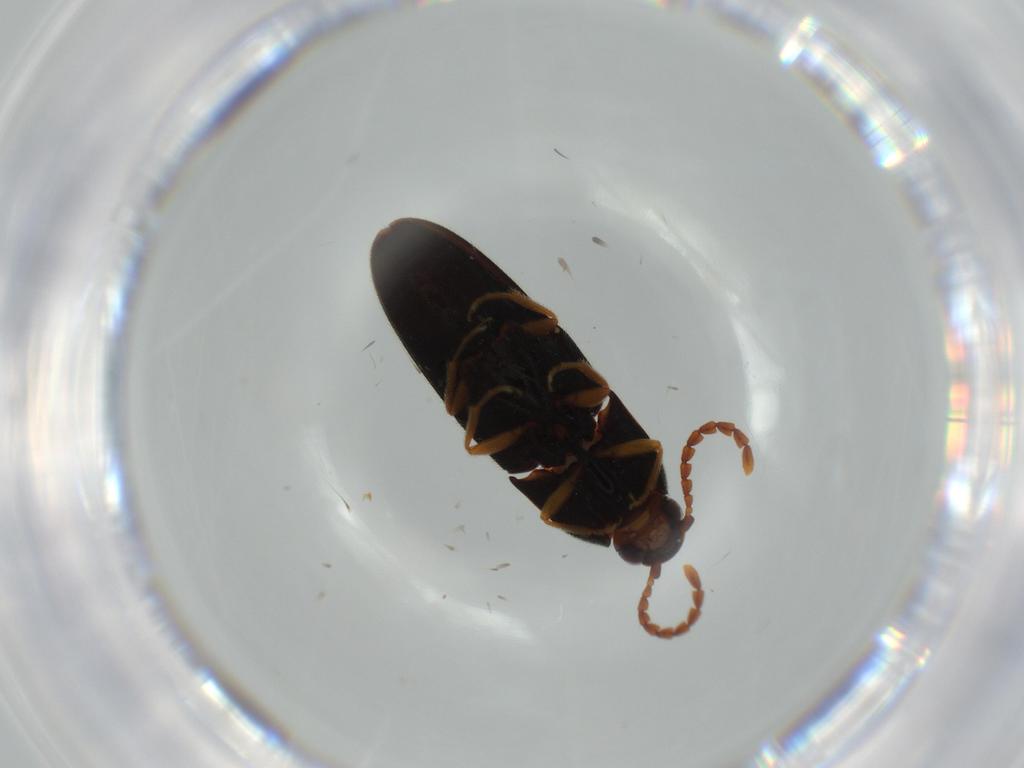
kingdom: Animalia
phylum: Arthropoda
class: Insecta
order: Coleoptera
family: Elateridae
